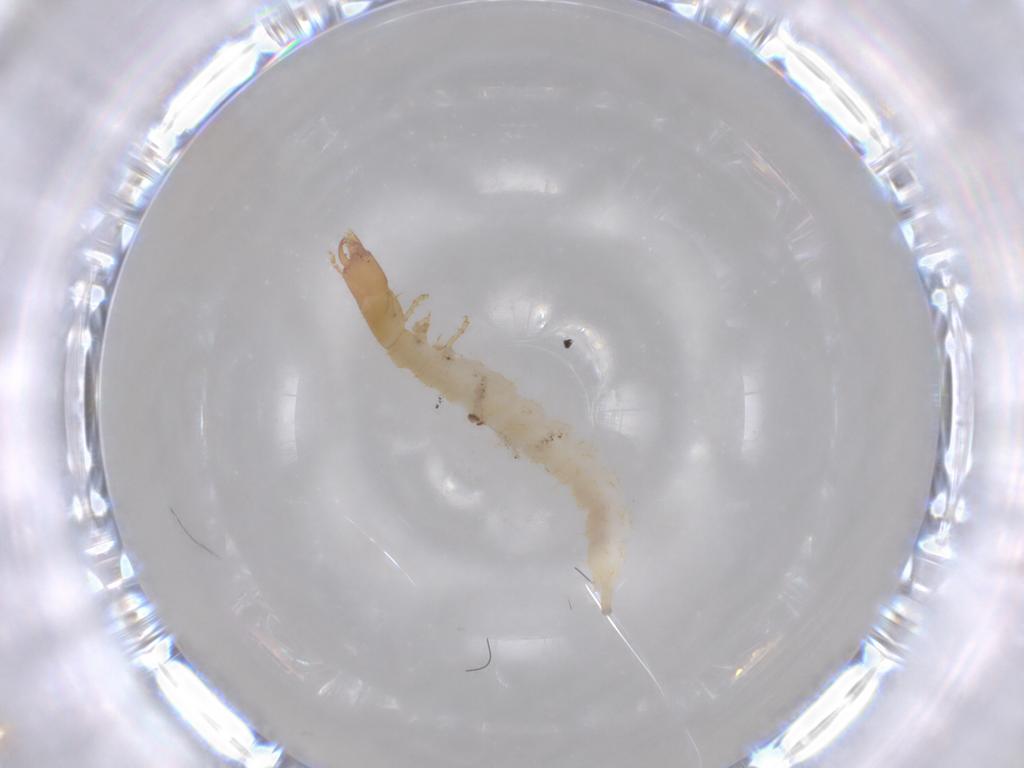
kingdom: Animalia
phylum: Arthropoda
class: Insecta
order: Coleoptera
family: Carabidae
